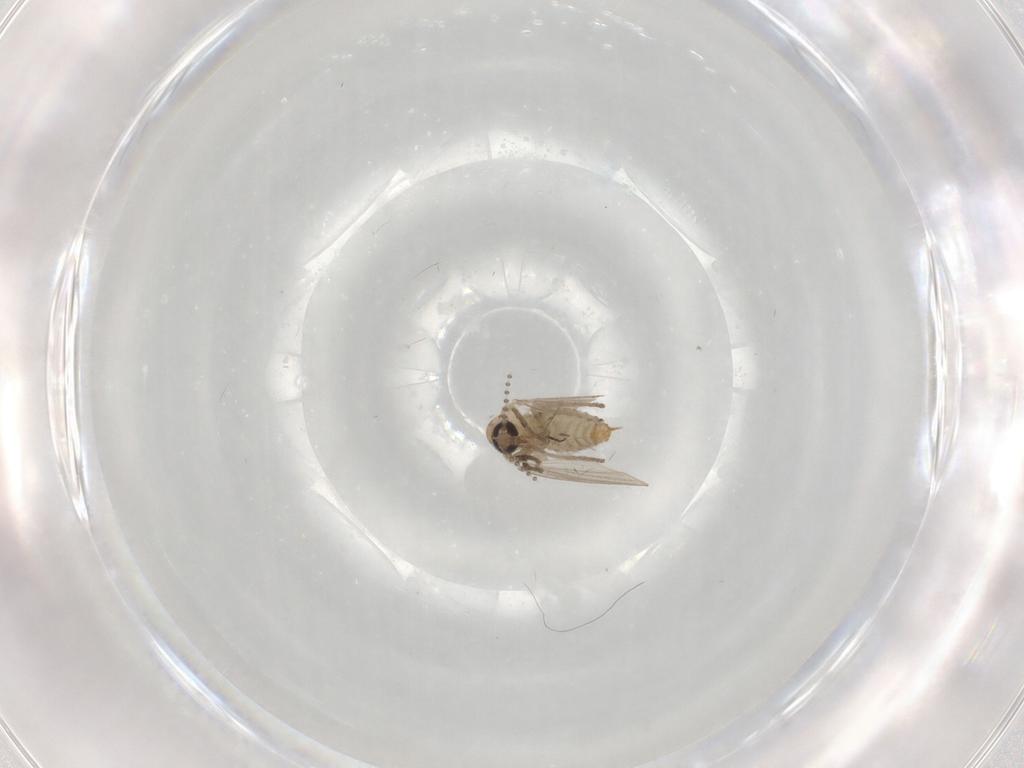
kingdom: Animalia
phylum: Arthropoda
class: Insecta
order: Diptera
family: Psychodidae
